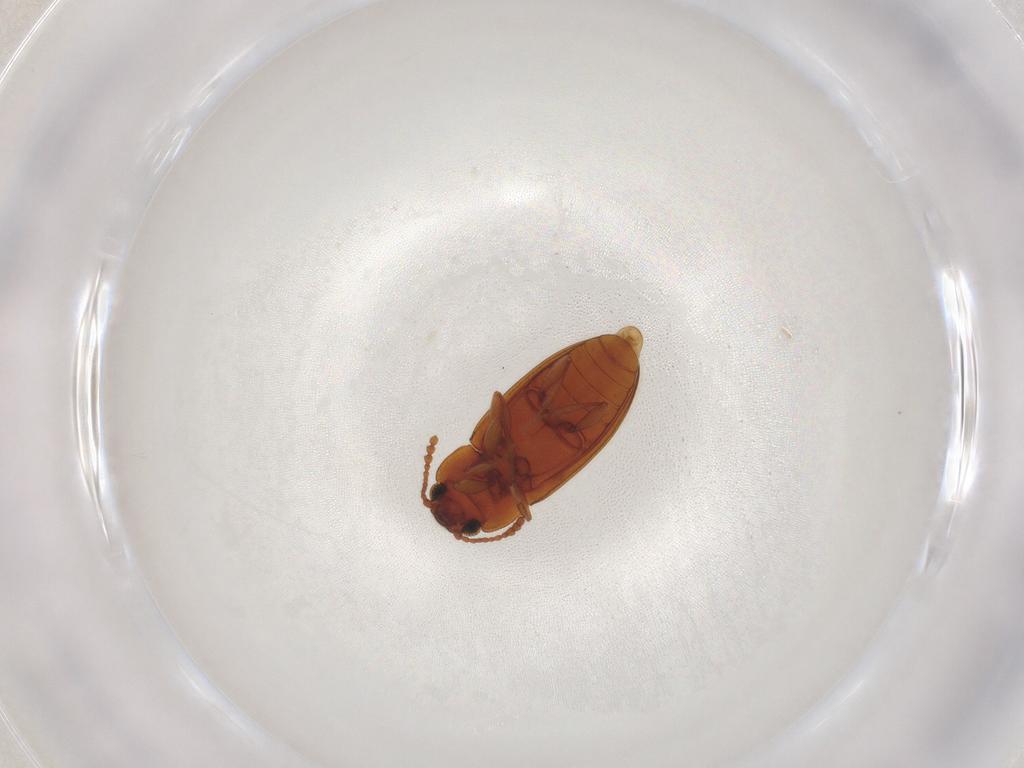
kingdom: Animalia
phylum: Arthropoda
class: Insecta
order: Coleoptera
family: Erotylidae
